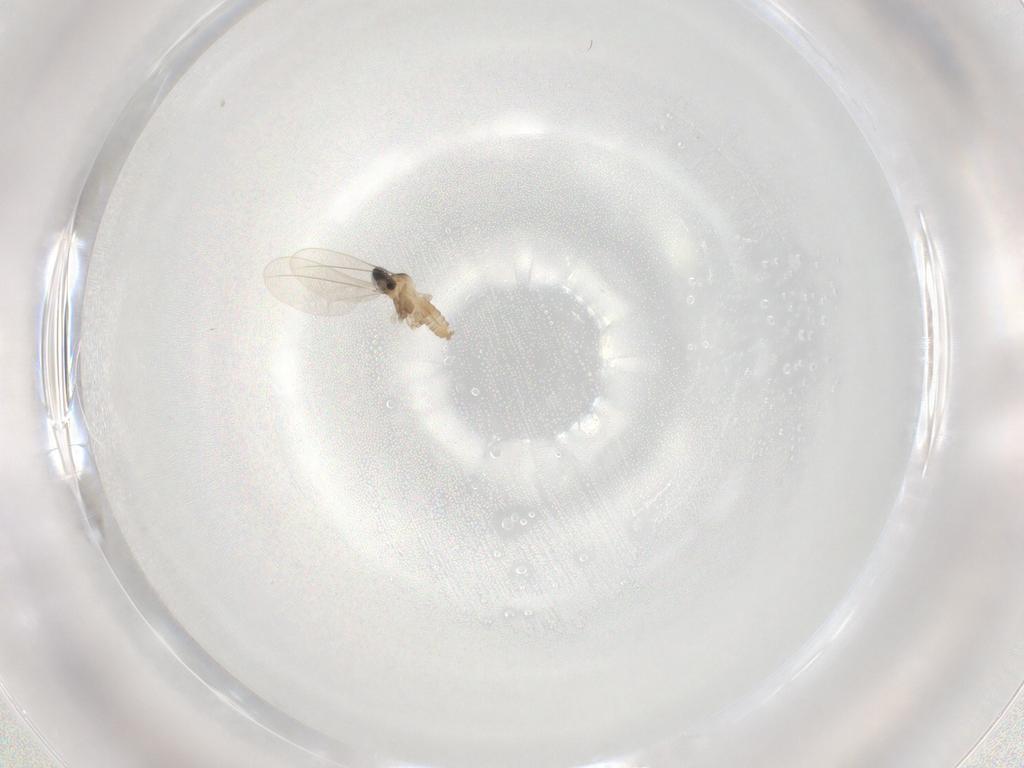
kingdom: Animalia
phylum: Arthropoda
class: Insecta
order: Diptera
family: Cecidomyiidae
